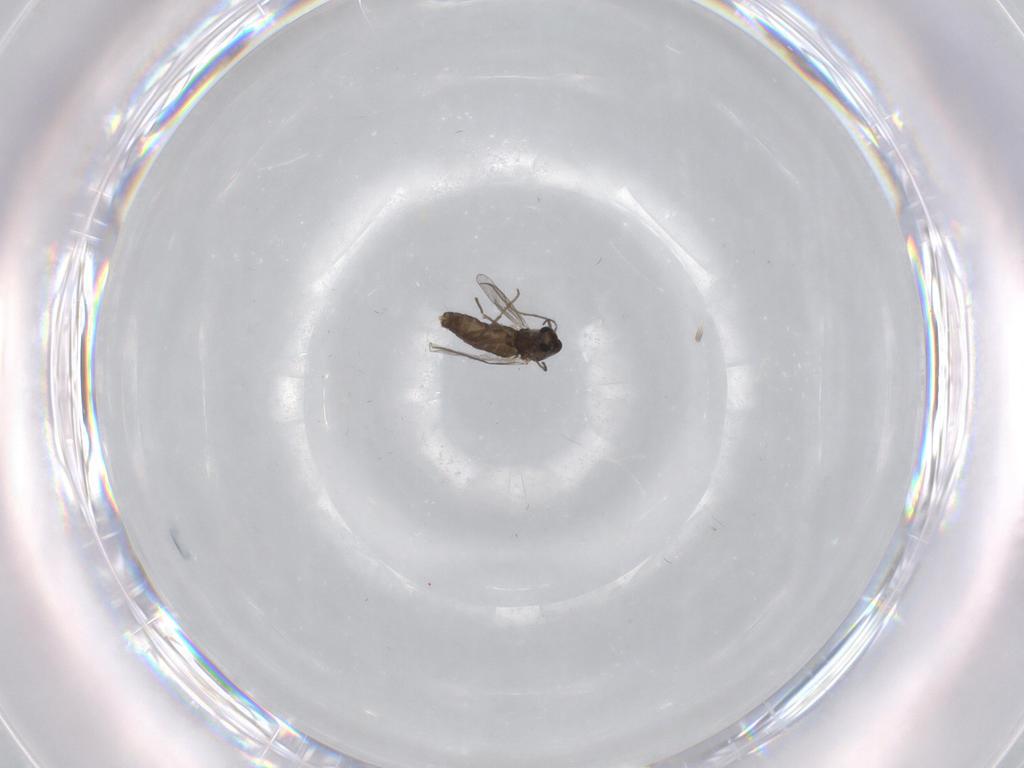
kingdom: Animalia
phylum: Arthropoda
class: Insecta
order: Diptera
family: Chironomidae
